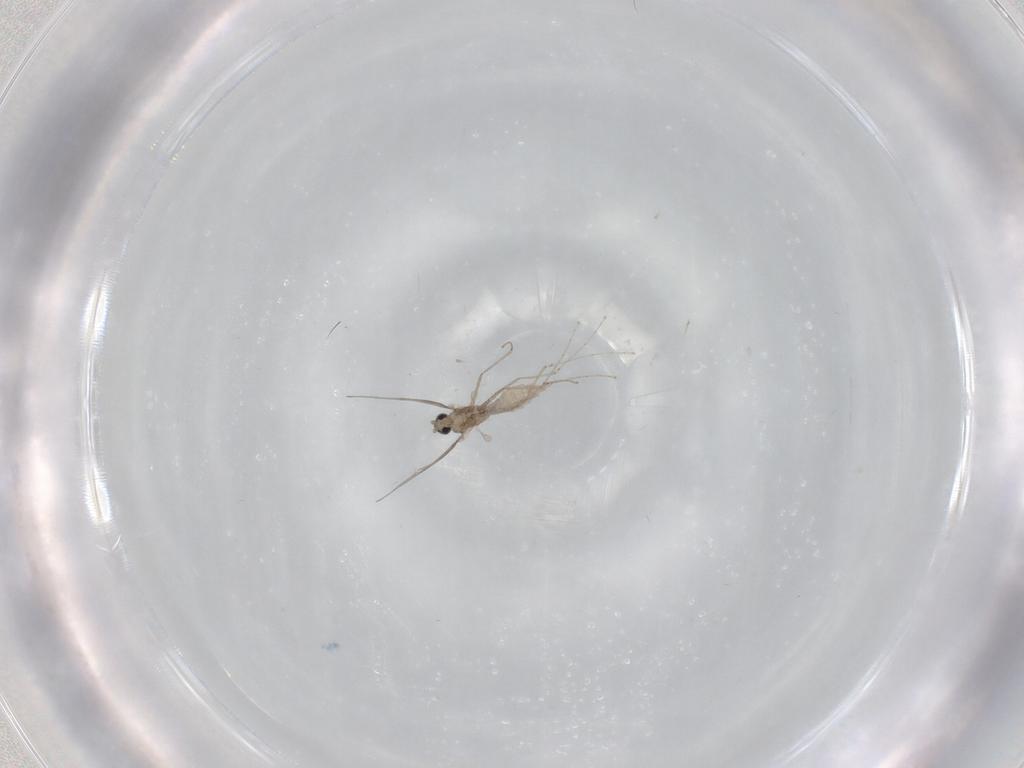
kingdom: Animalia
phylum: Arthropoda
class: Insecta
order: Diptera
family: Cecidomyiidae
